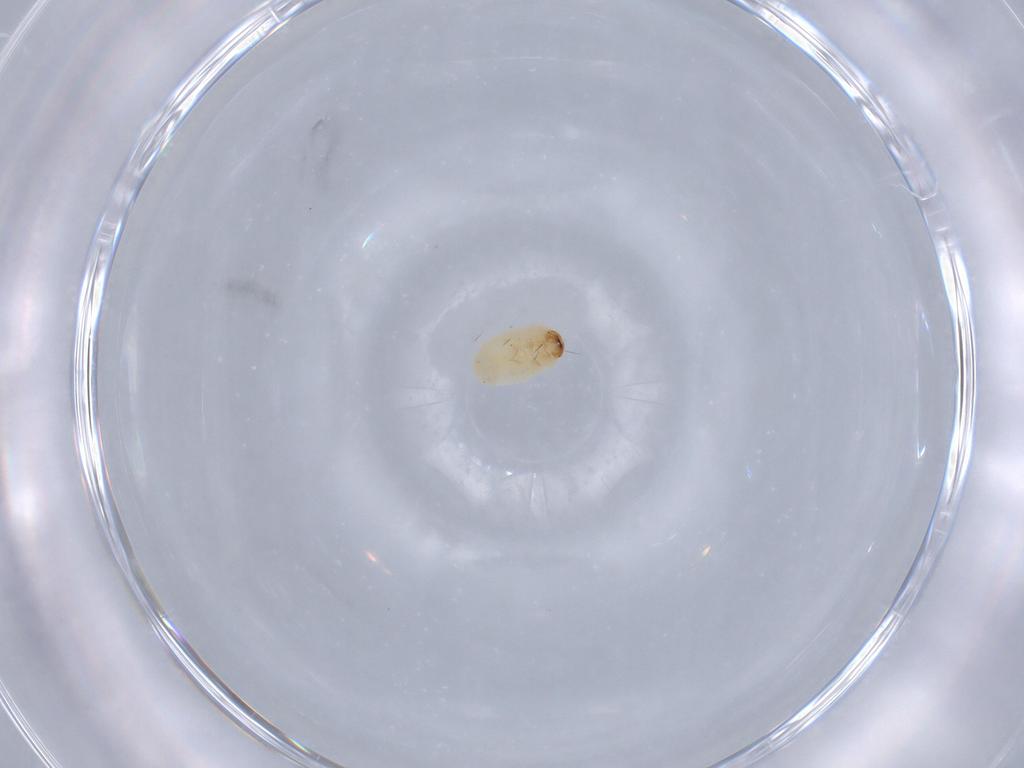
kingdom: Animalia
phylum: Arthropoda
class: Insecta
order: Coleoptera
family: Bostrichidae
